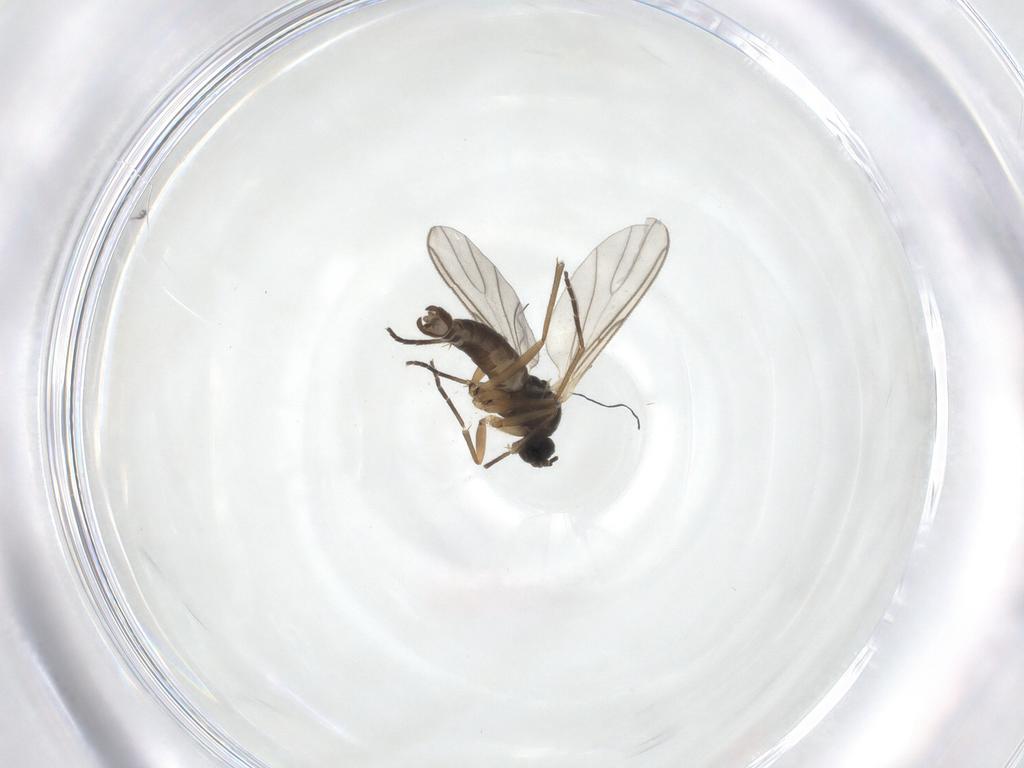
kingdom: Animalia
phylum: Arthropoda
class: Insecta
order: Diptera
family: Sciaridae
